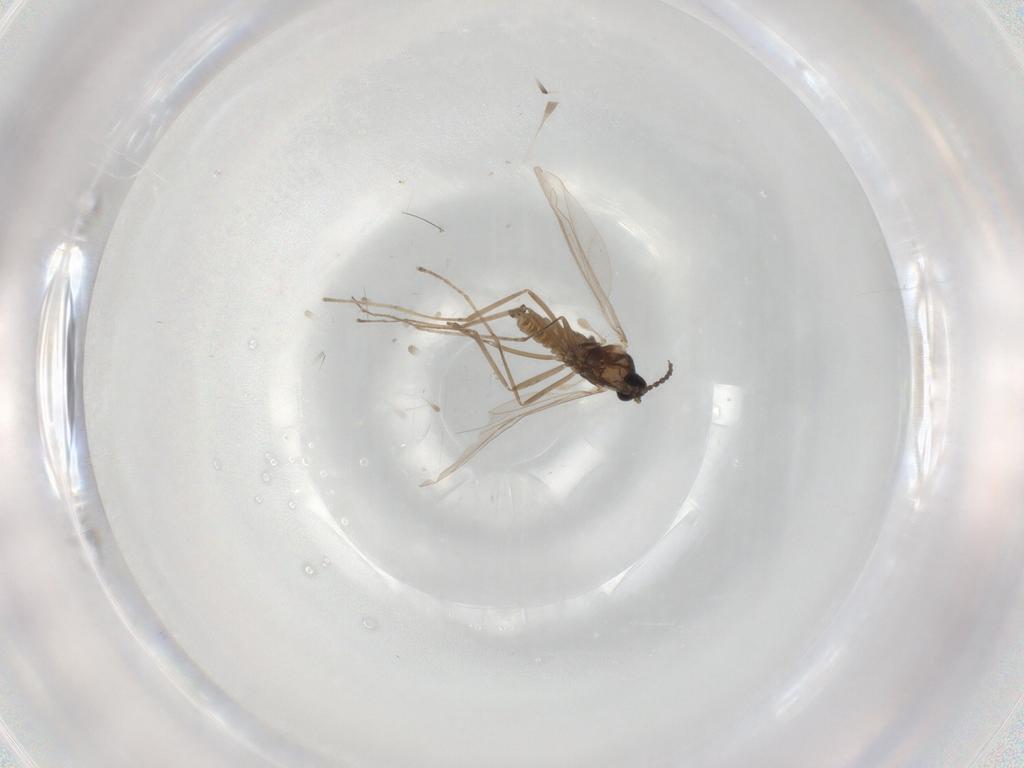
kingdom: Animalia
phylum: Arthropoda
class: Insecta
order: Diptera
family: Cecidomyiidae
